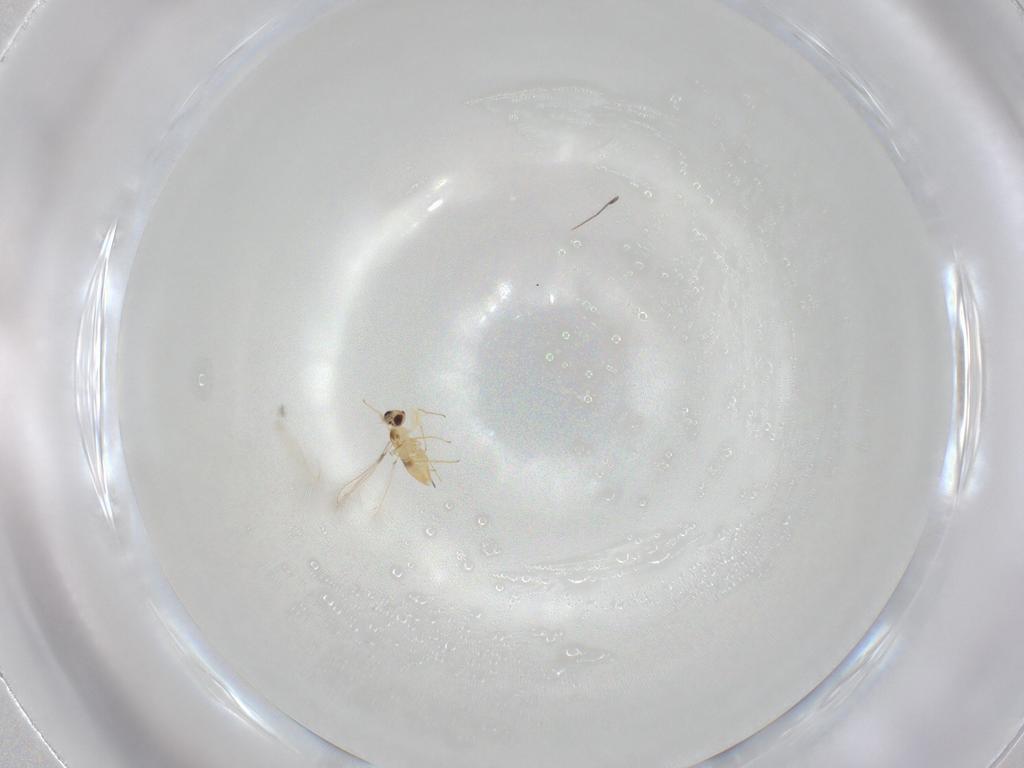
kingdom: Animalia
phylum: Arthropoda
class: Insecta
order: Hymenoptera
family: Mymaridae
